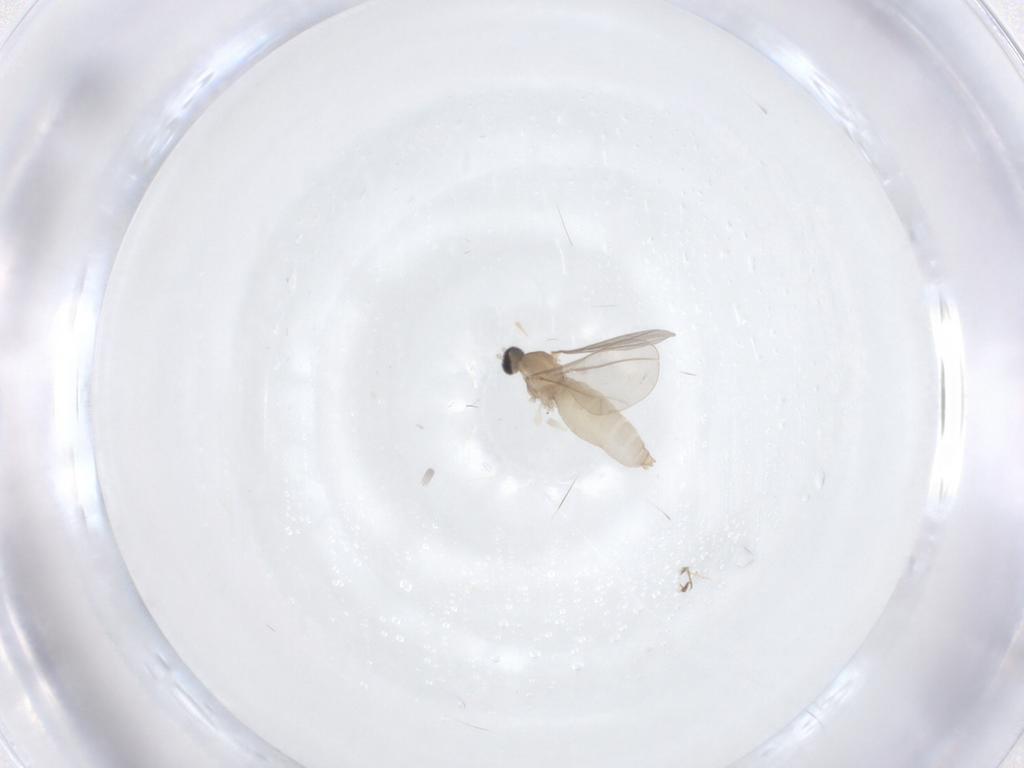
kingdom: Animalia
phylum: Arthropoda
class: Insecta
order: Diptera
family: Cecidomyiidae
